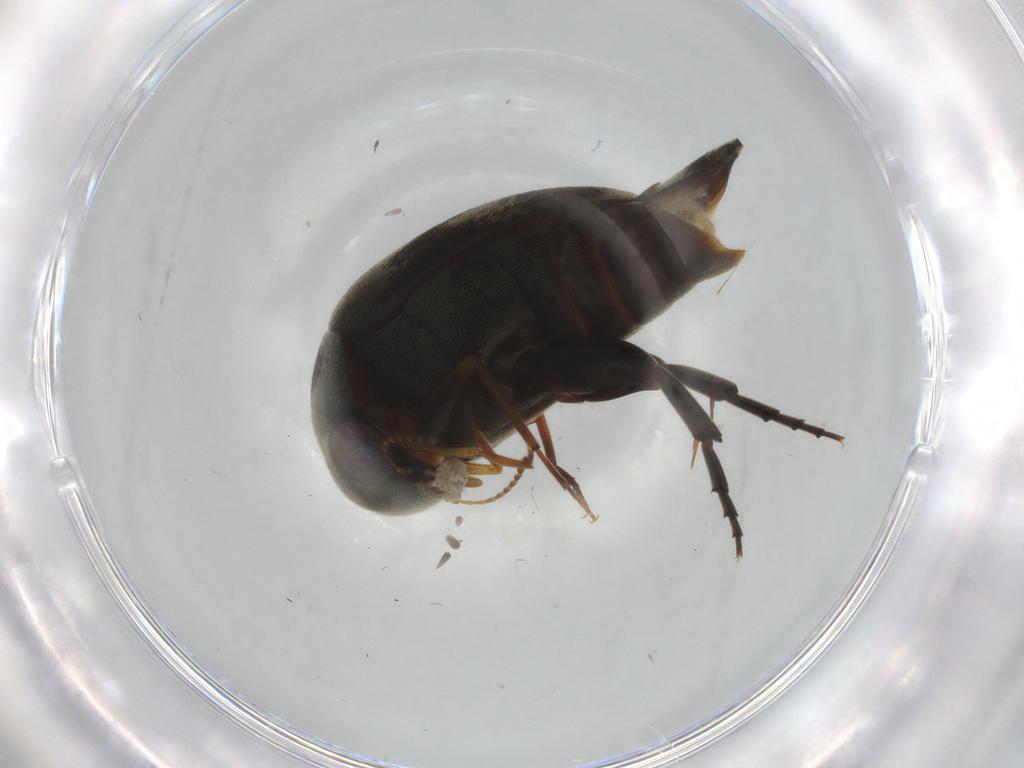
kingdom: Animalia
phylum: Arthropoda
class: Insecta
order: Coleoptera
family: Mordellidae
